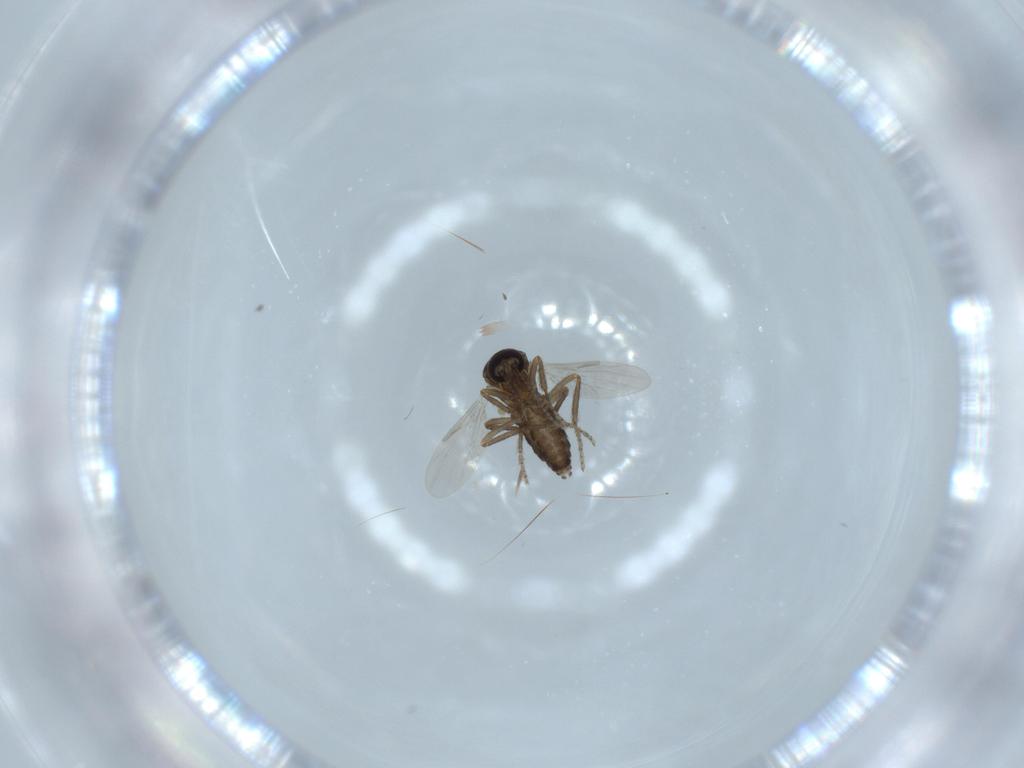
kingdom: Animalia
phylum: Arthropoda
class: Insecta
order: Diptera
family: Ceratopogonidae
